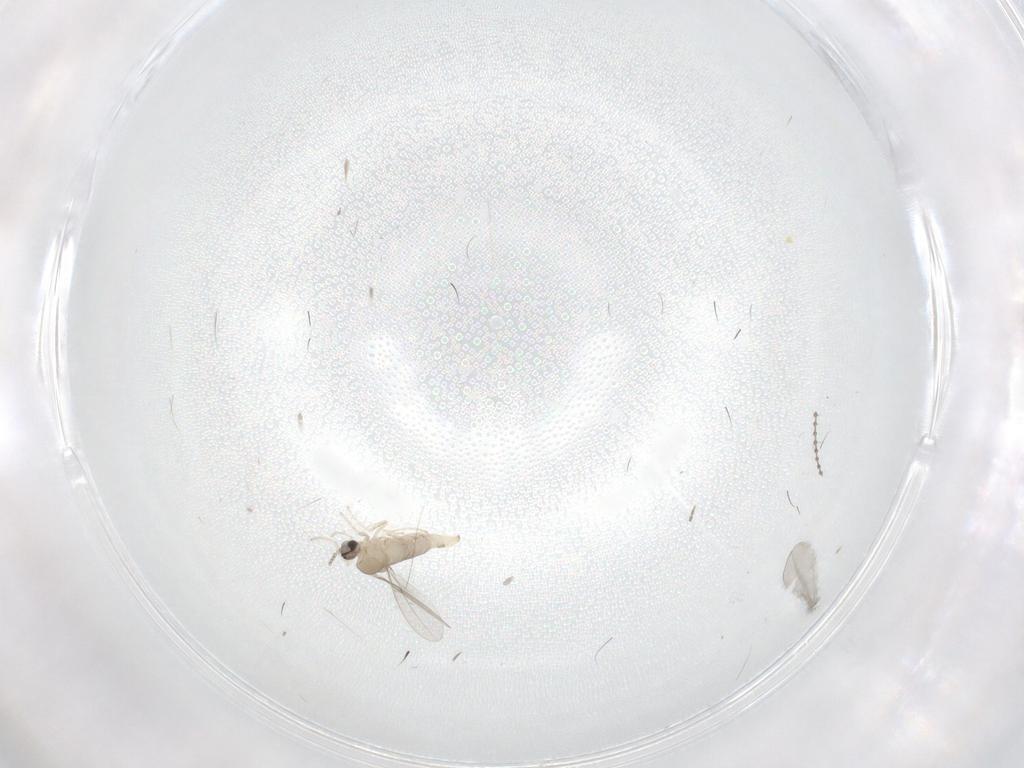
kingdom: Animalia
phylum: Arthropoda
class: Insecta
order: Diptera
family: Cecidomyiidae
